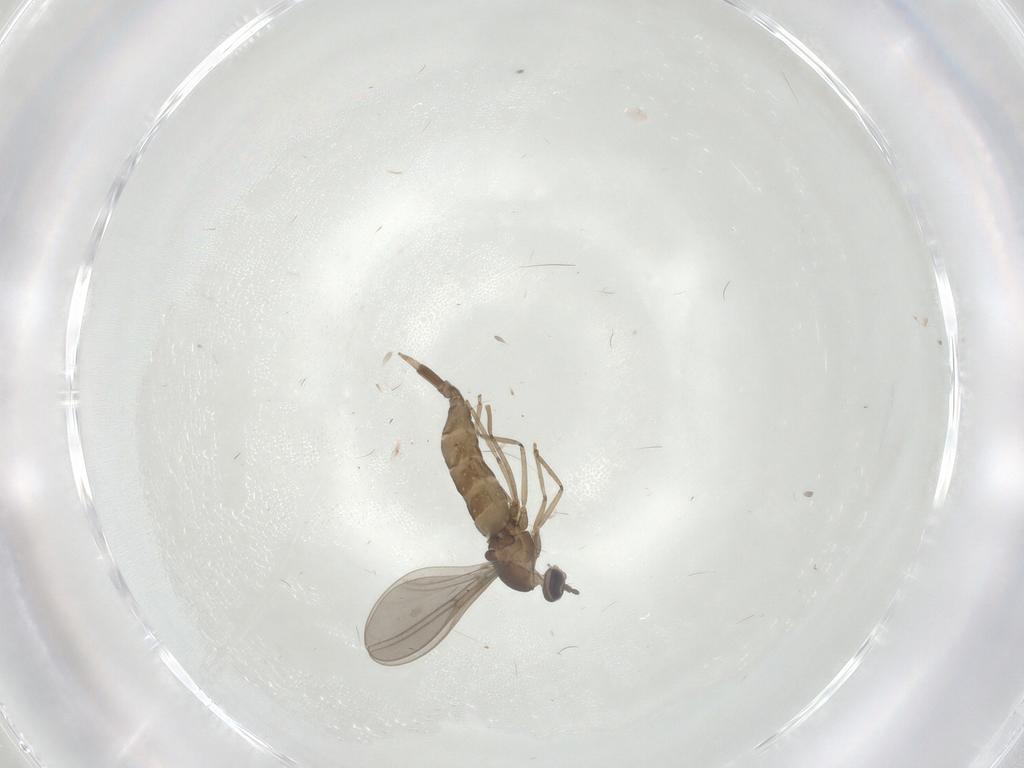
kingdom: Animalia
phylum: Arthropoda
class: Insecta
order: Diptera
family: Cecidomyiidae
